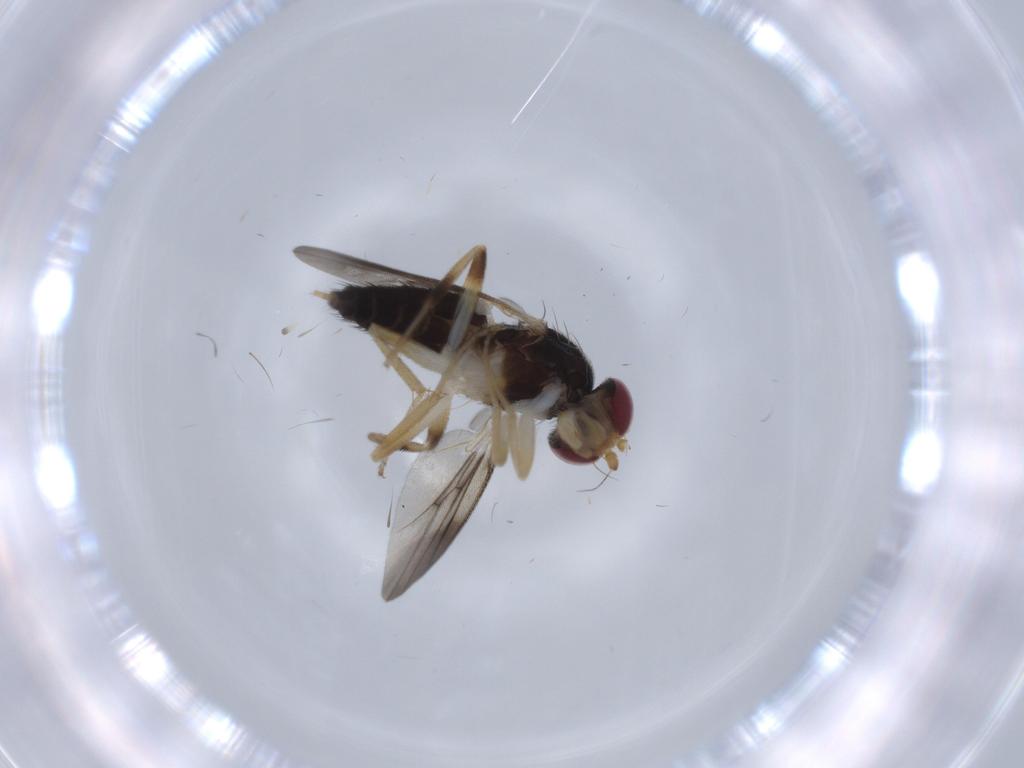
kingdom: Animalia
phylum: Arthropoda
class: Insecta
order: Diptera
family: Clusiidae
